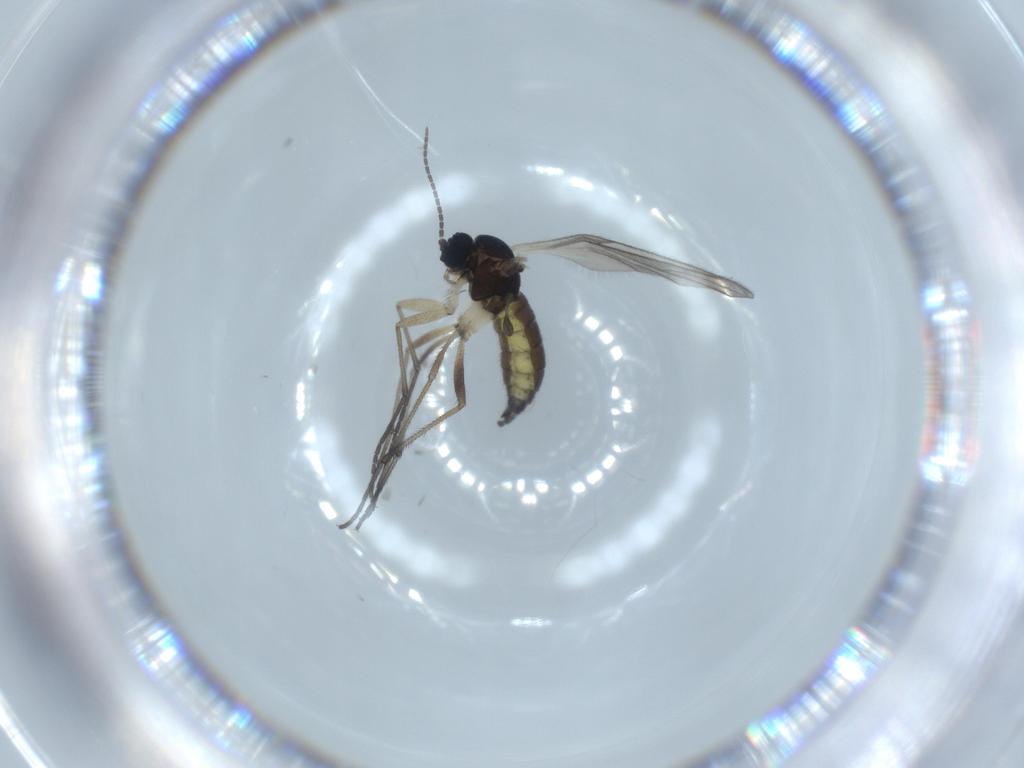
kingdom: Animalia
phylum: Arthropoda
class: Insecta
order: Diptera
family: Sciaridae
